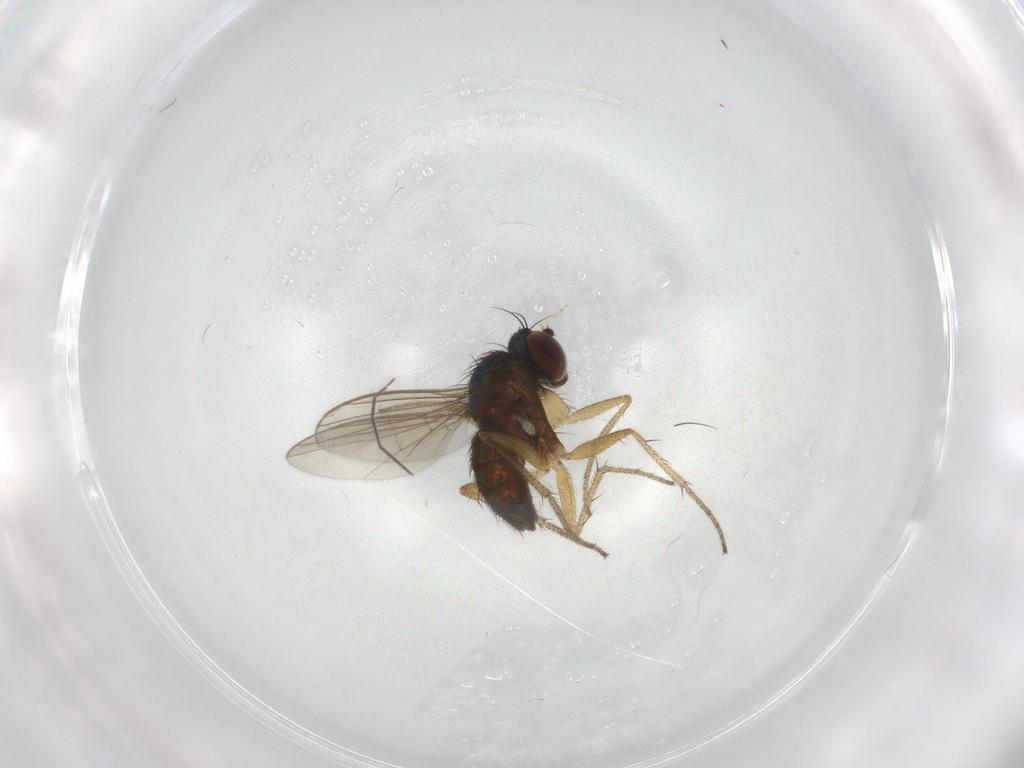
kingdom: Animalia
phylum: Arthropoda
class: Insecta
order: Diptera
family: Dolichopodidae
